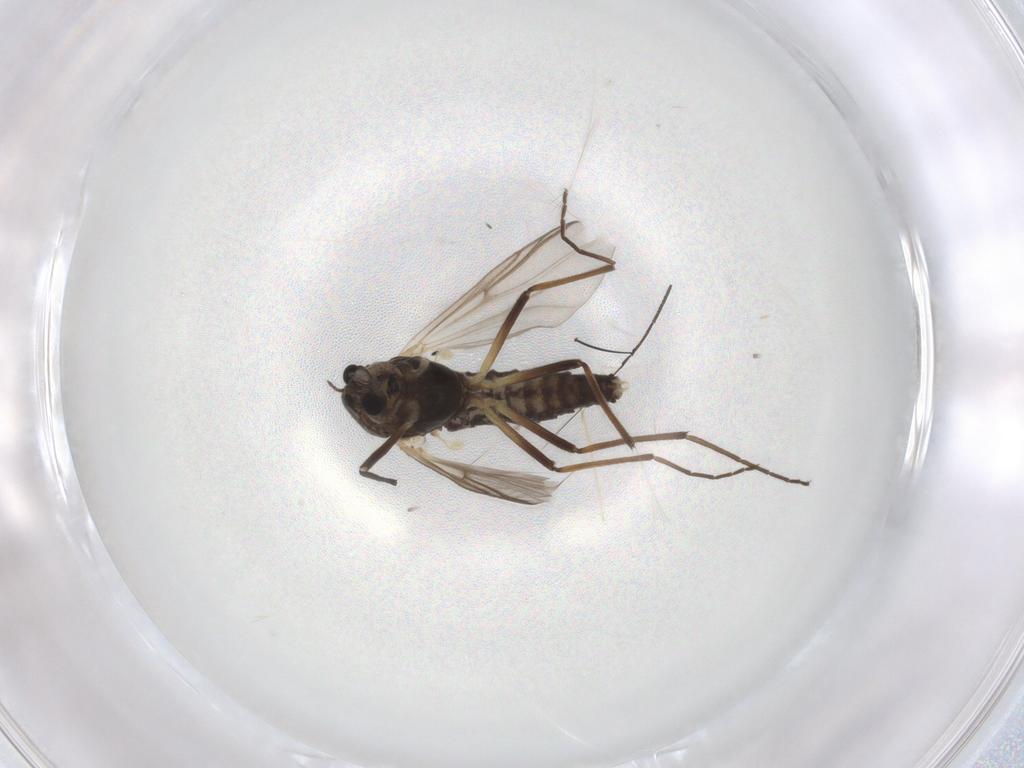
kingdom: Animalia
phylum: Arthropoda
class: Insecta
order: Diptera
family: Chironomidae
